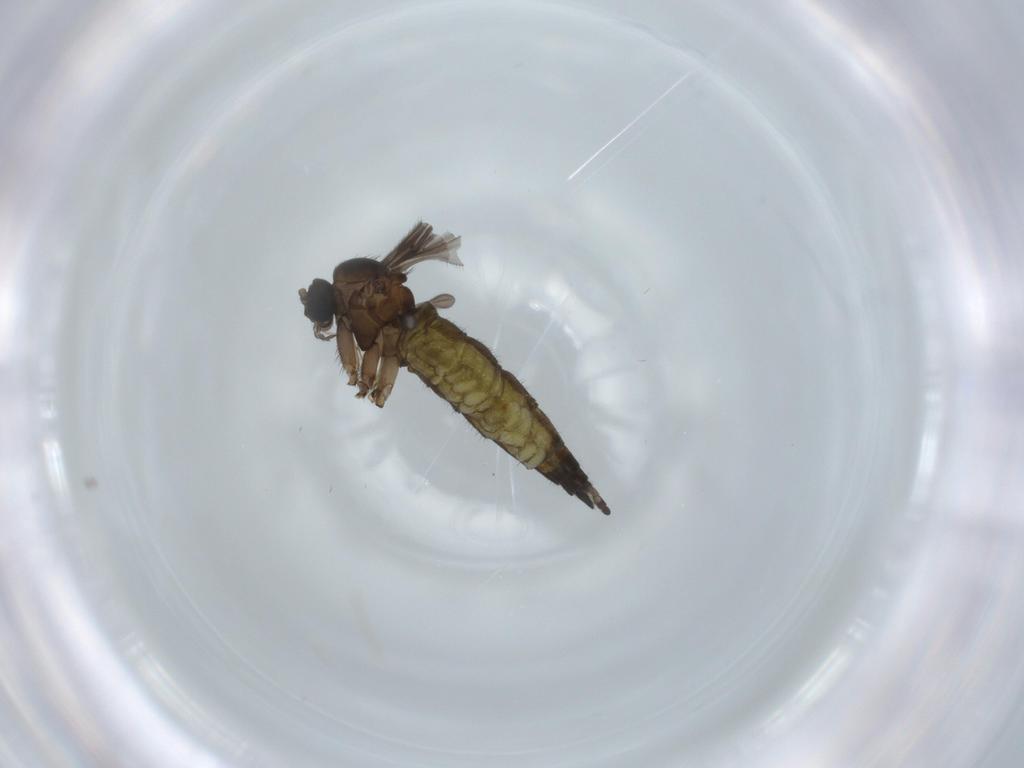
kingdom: Animalia
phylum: Arthropoda
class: Insecta
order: Diptera
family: Sciaridae
